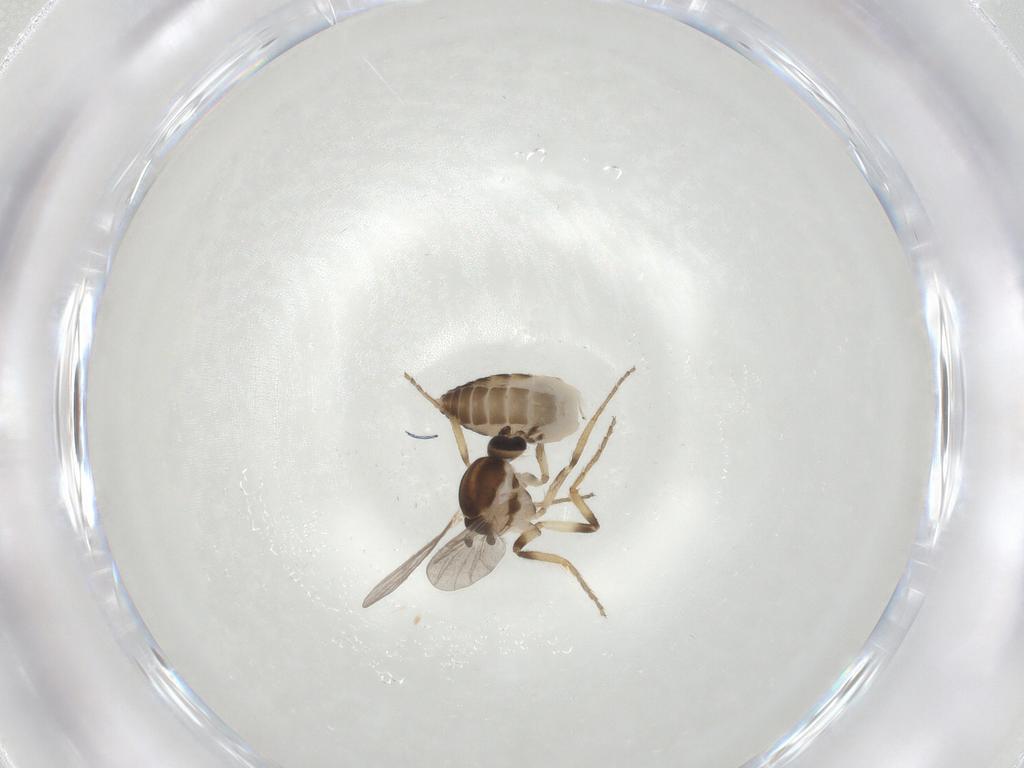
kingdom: Animalia
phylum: Arthropoda
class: Insecta
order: Diptera
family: Ceratopogonidae
